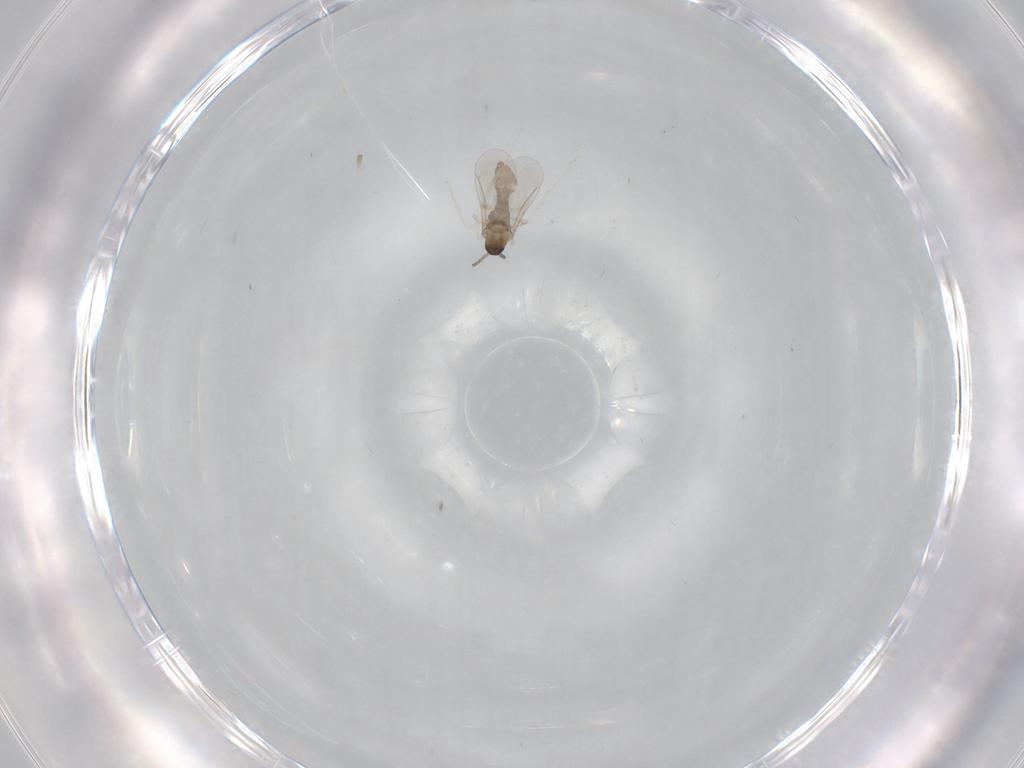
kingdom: Animalia
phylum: Arthropoda
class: Insecta
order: Diptera
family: Cecidomyiidae
